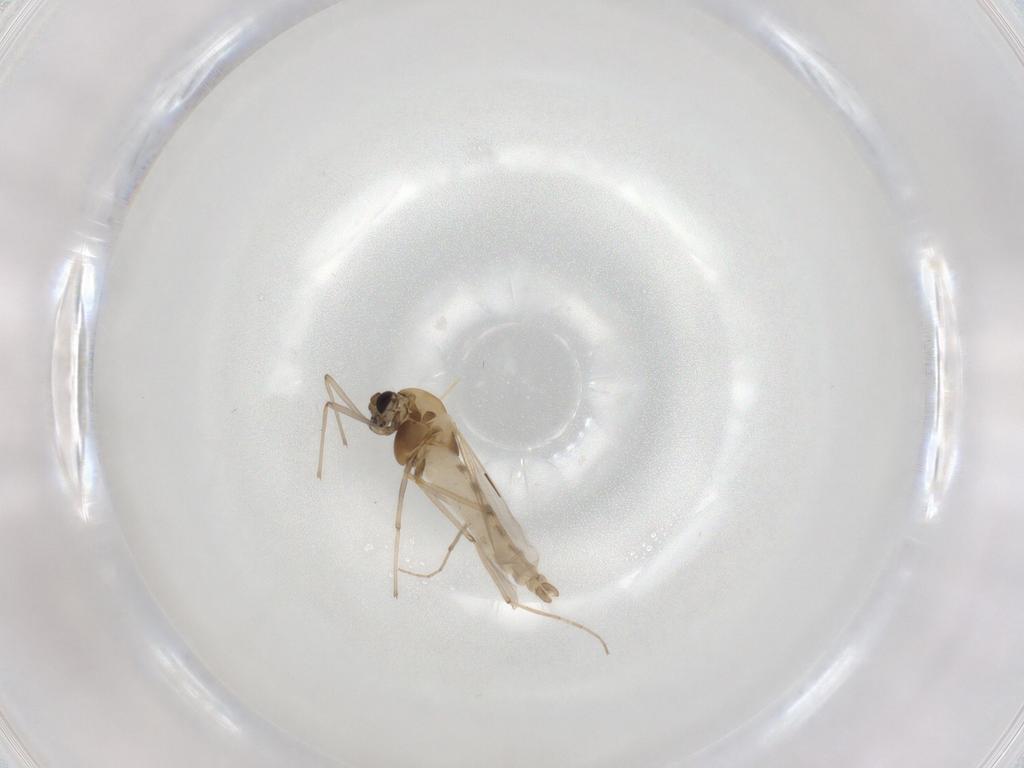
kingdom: Animalia
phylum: Arthropoda
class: Insecta
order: Diptera
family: Chironomidae
